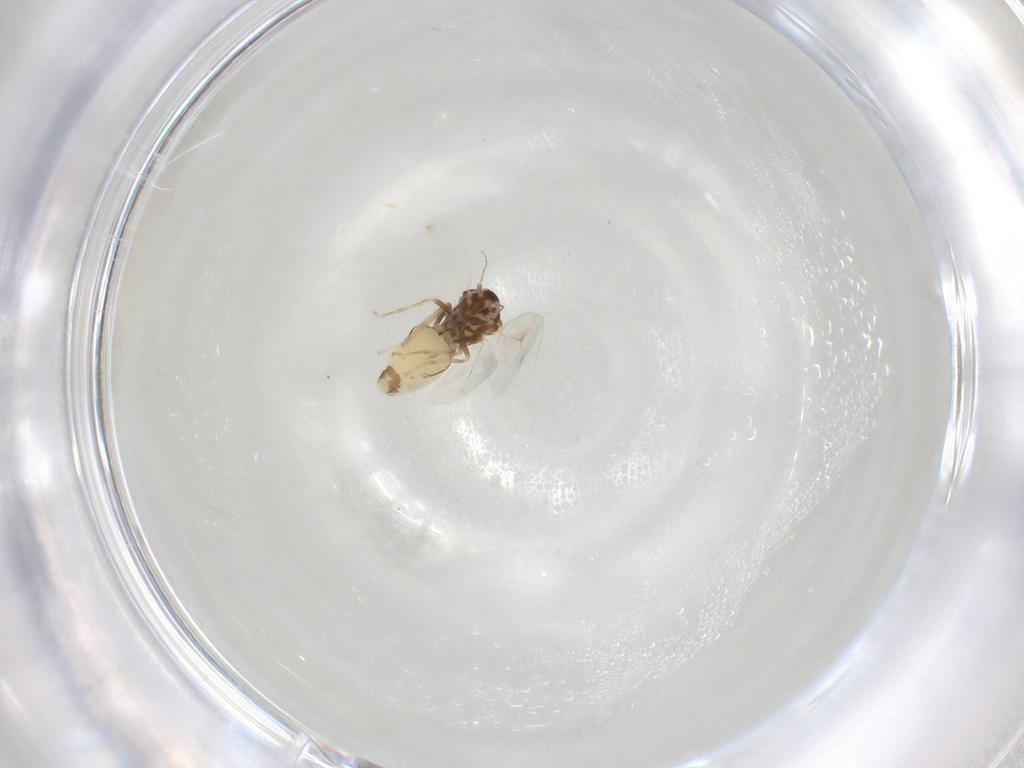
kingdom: Animalia
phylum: Arthropoda
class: Insecta
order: Hemiptera
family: Aleyrodidae
